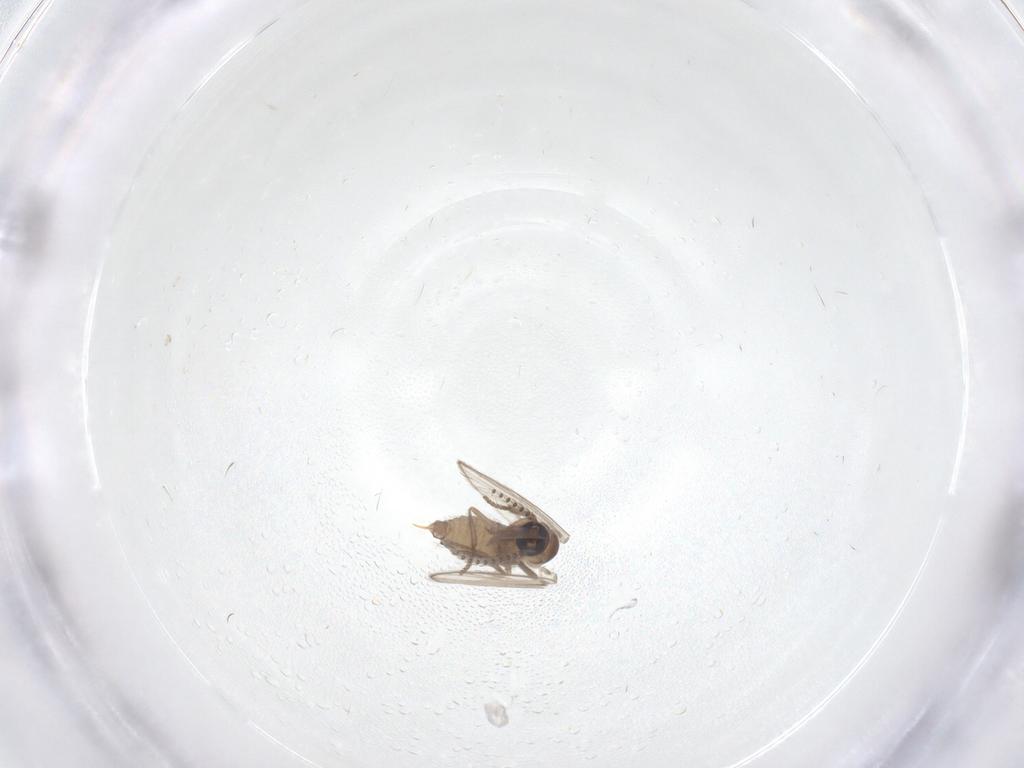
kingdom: Animalia
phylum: Arthropoda
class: Insecta
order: Diptera
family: Psychodidae
